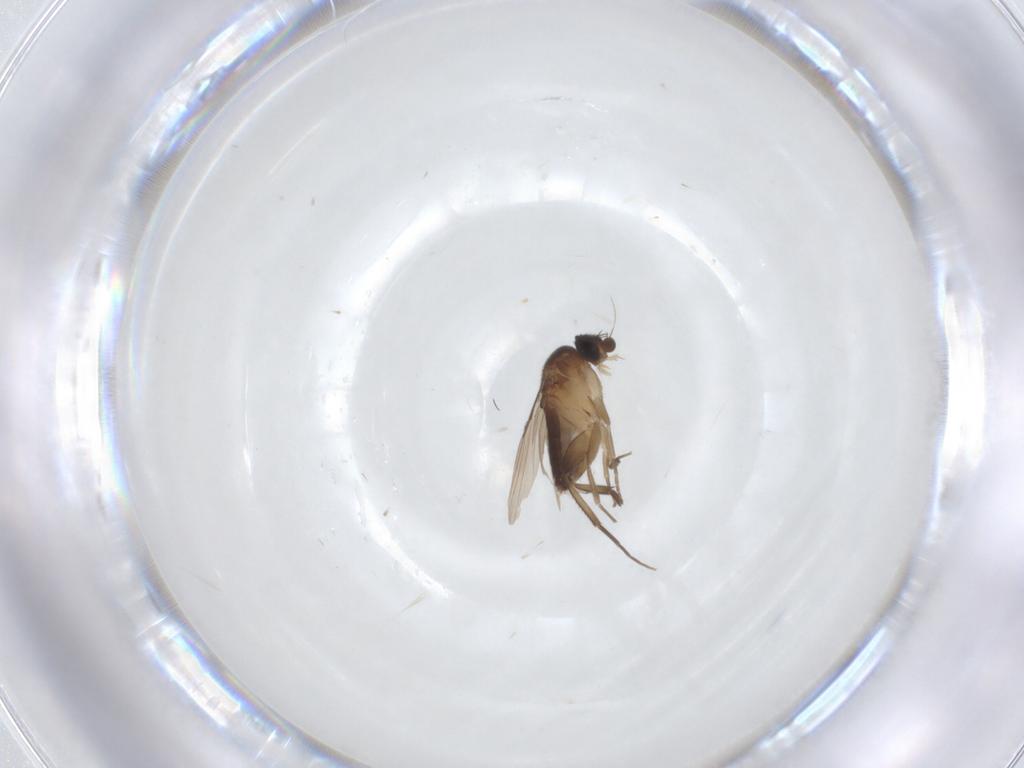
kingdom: Animalia
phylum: Arthropoda
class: Insecta
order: Diptera
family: Phoridae
